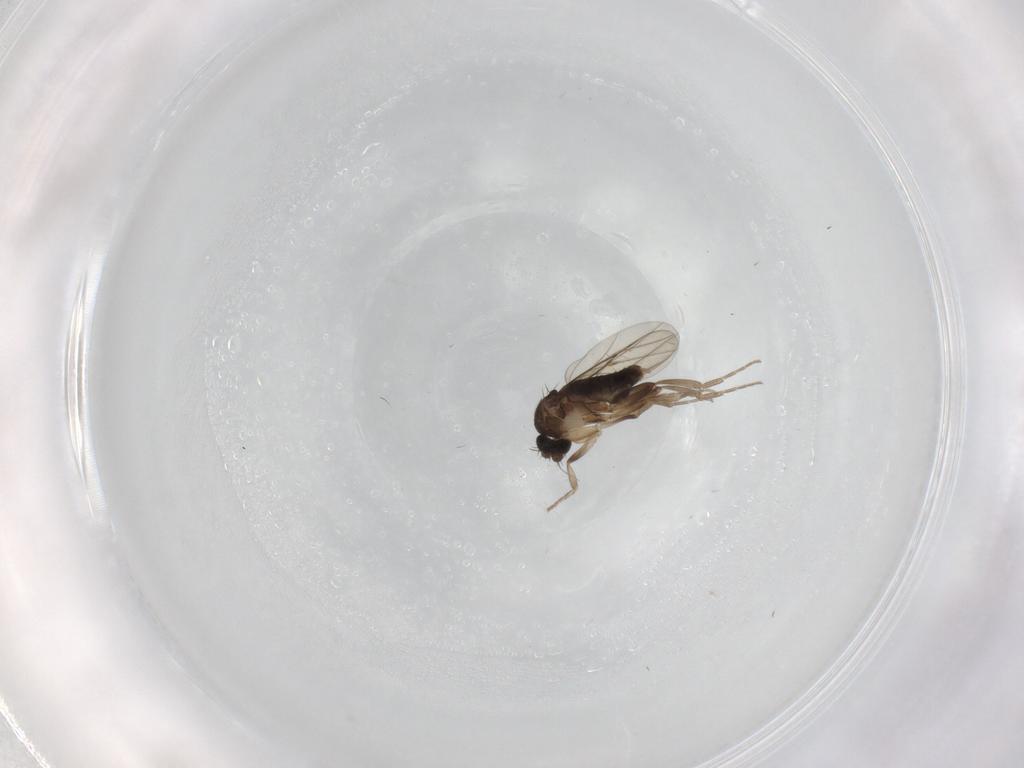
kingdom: Animalia
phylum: Arthropoda
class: Insecta
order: Diptera
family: Phoridae
